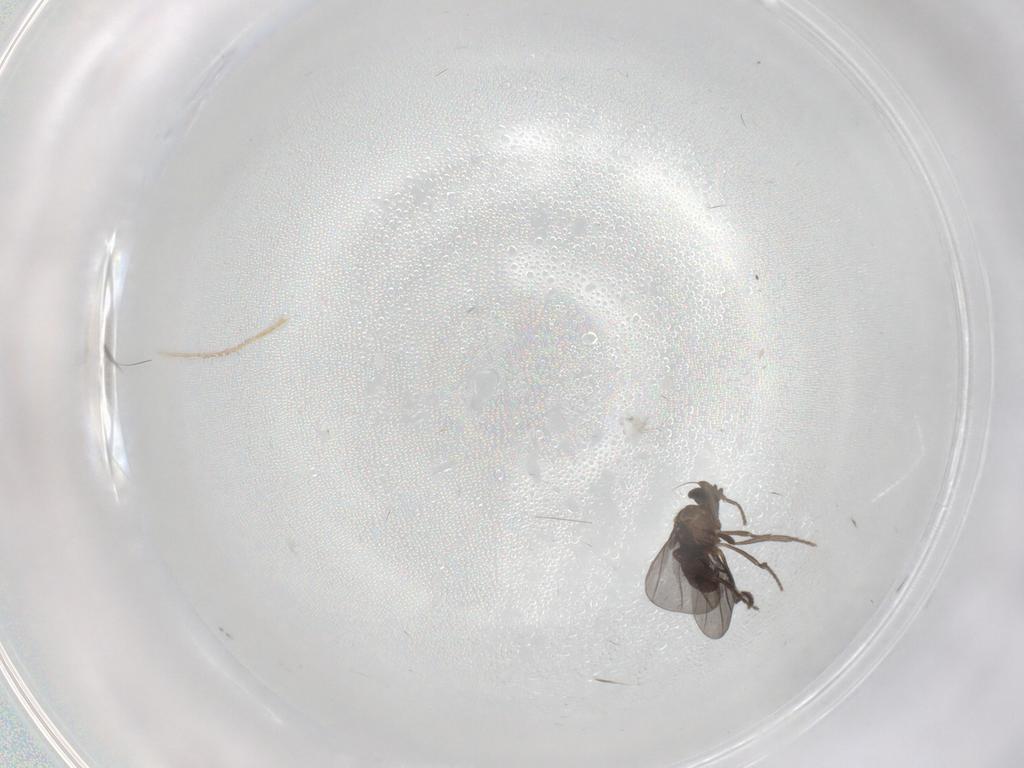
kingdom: Animalia
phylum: Arthropoda
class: Insecta
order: Diptera
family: Phoridae
